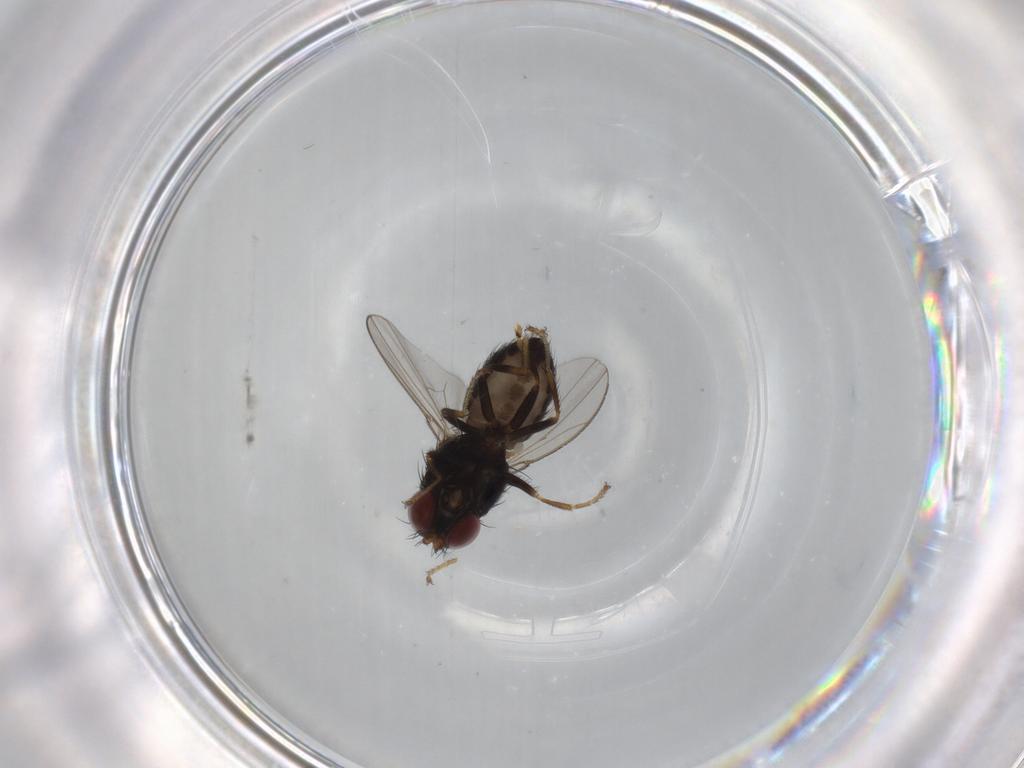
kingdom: Animalia
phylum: Arthropoda
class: Insecta
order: Diptera
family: Ephydridae
